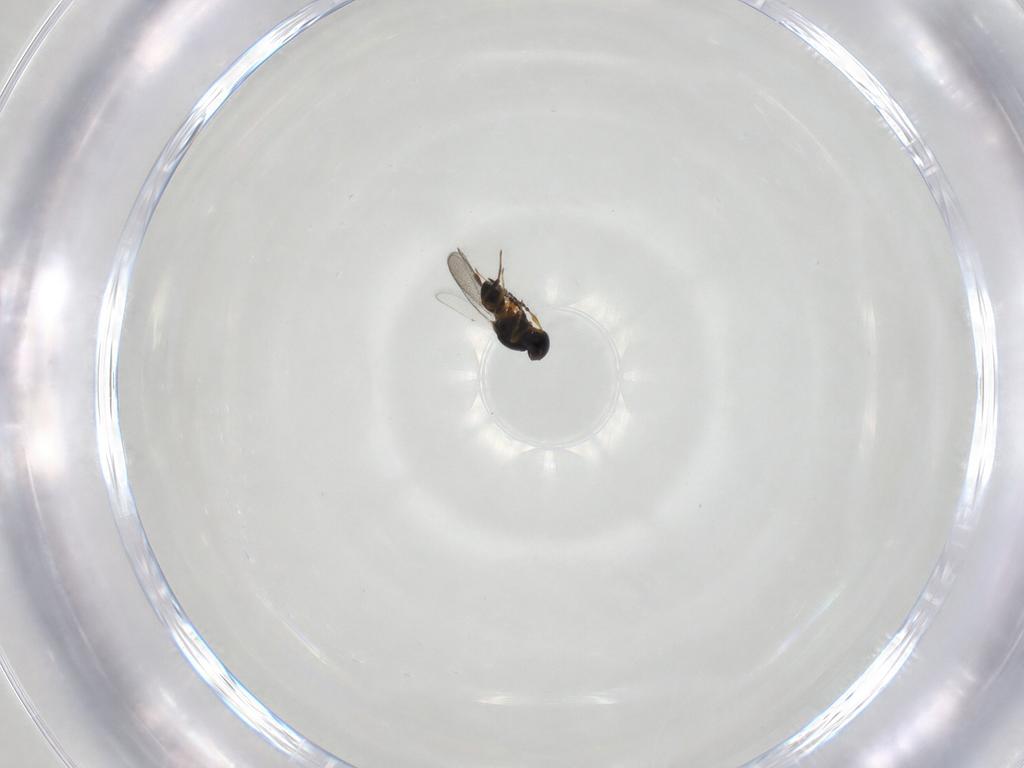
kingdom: Animalia
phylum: Arthropoda
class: Insecta
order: Hymenoptera
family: Platygastridae
